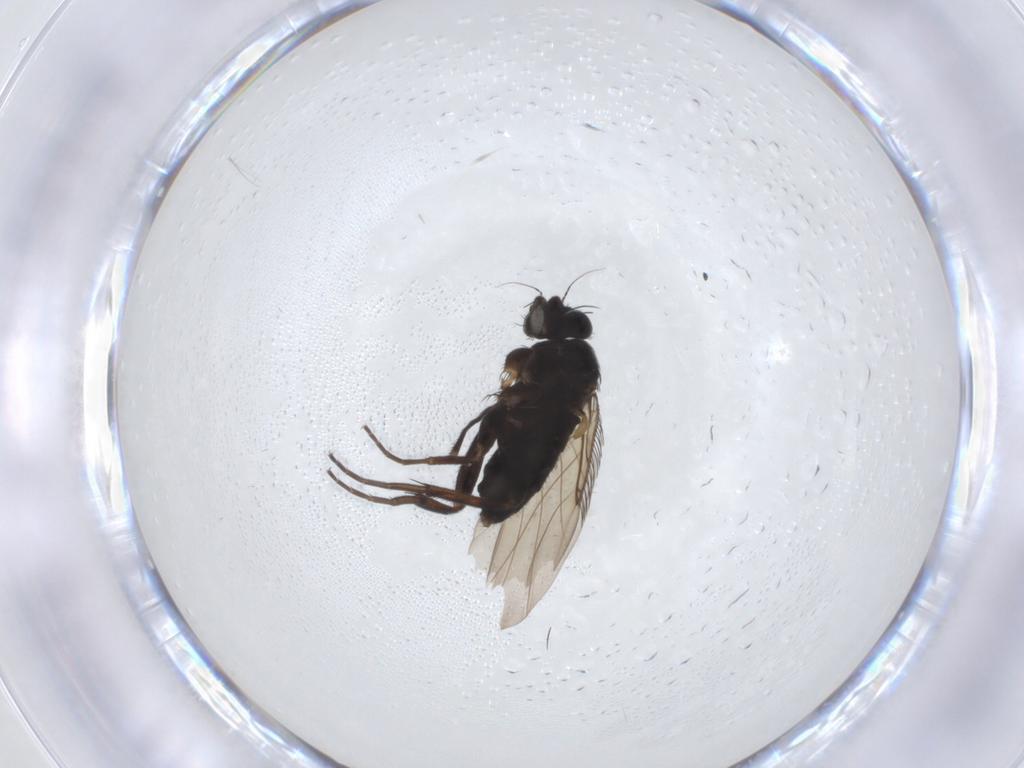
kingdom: Animalia
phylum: Arthropoda
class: Insecta
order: Diptera
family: Phoridae
